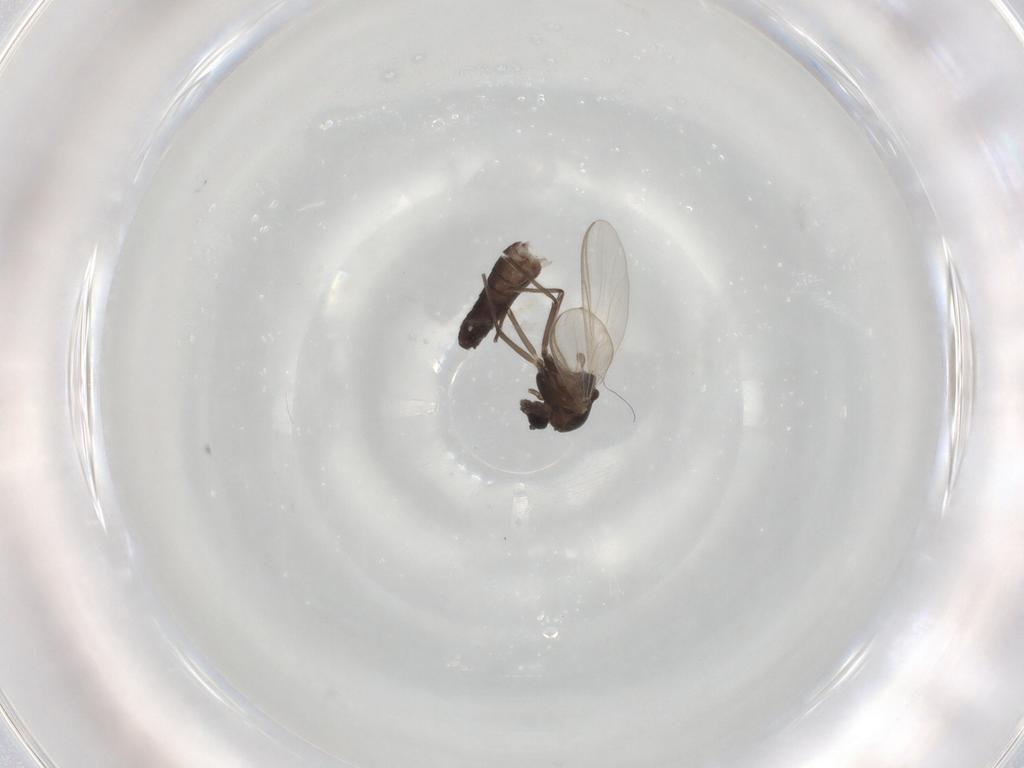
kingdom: Animalia
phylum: Arthropoda
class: Insecta
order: Diptera
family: Chironomidae
